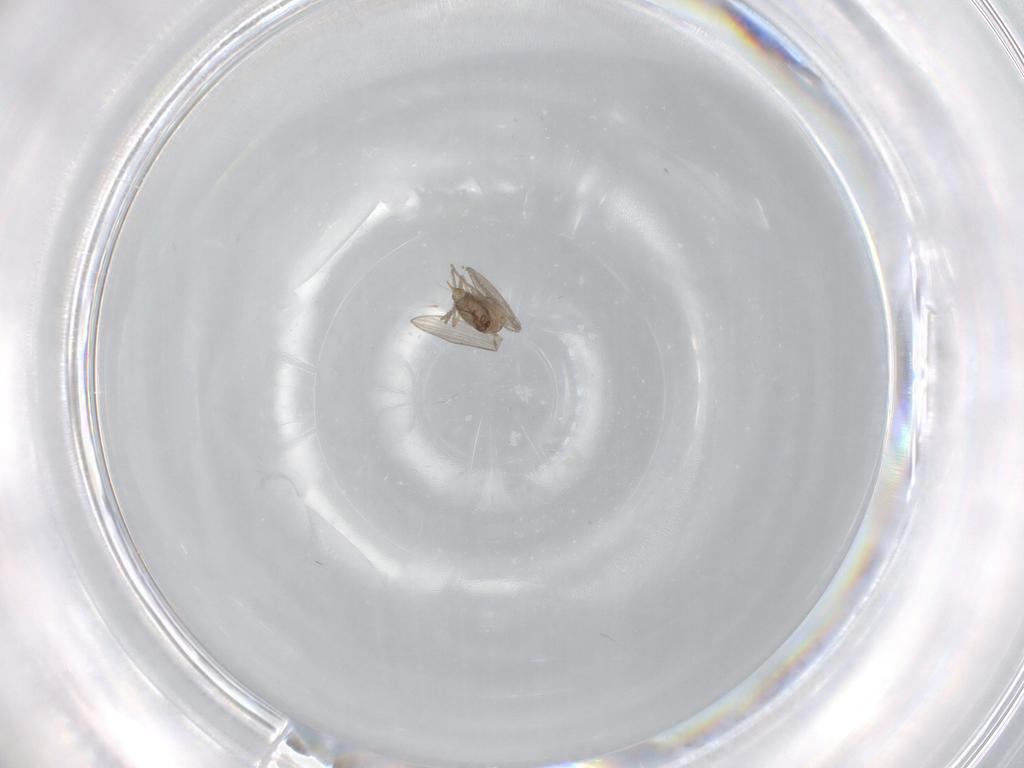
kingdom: Animalia
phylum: Arthropoda
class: Insecta
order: Diptera
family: Psychodidae
